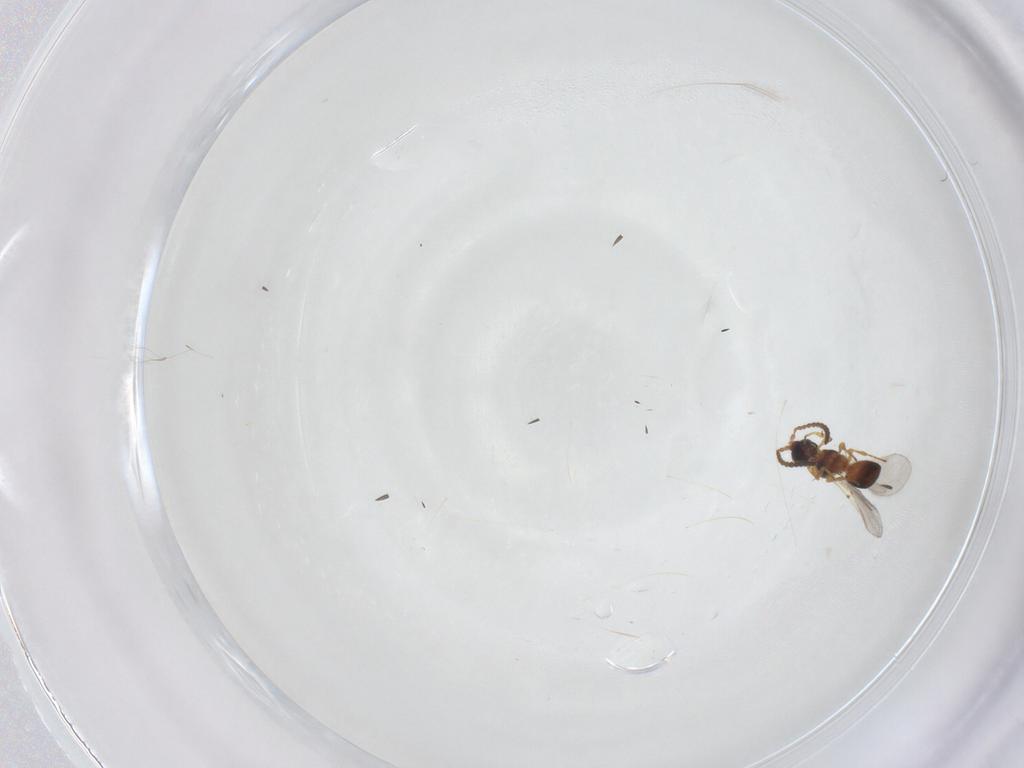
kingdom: Animalia
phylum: Arthropoda
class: Insecta
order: Hymenoptera
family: Diapriidae
